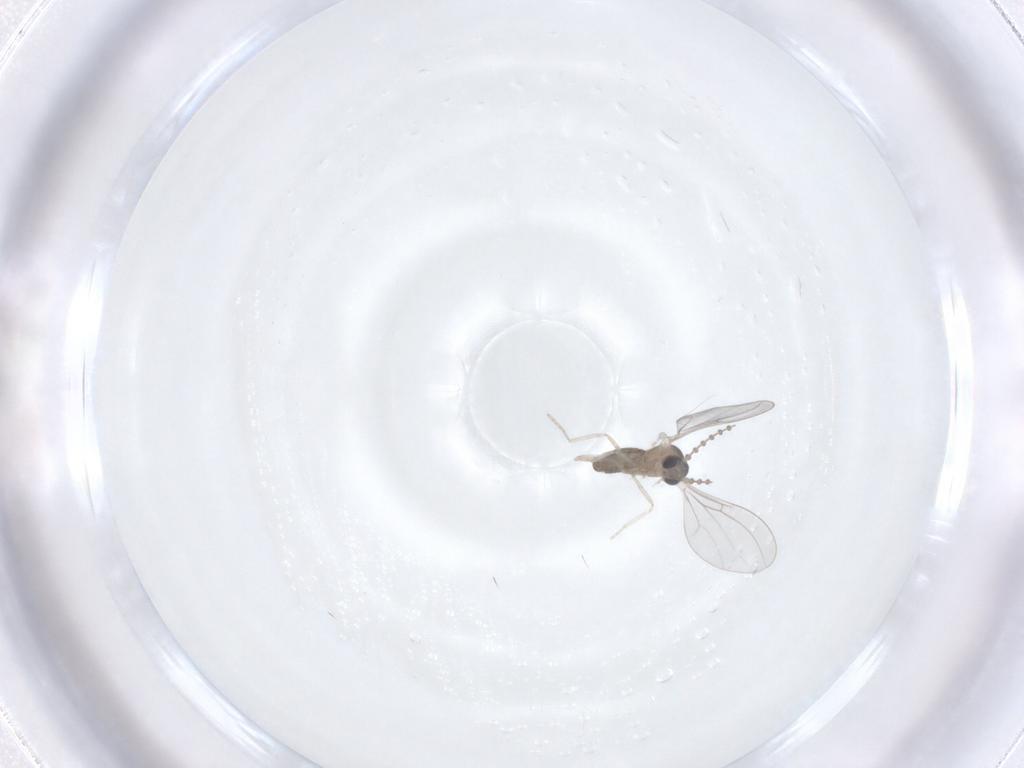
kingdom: Animalia
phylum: Arthropoda
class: Insecta
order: Diptera
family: Cecidomyiidae
